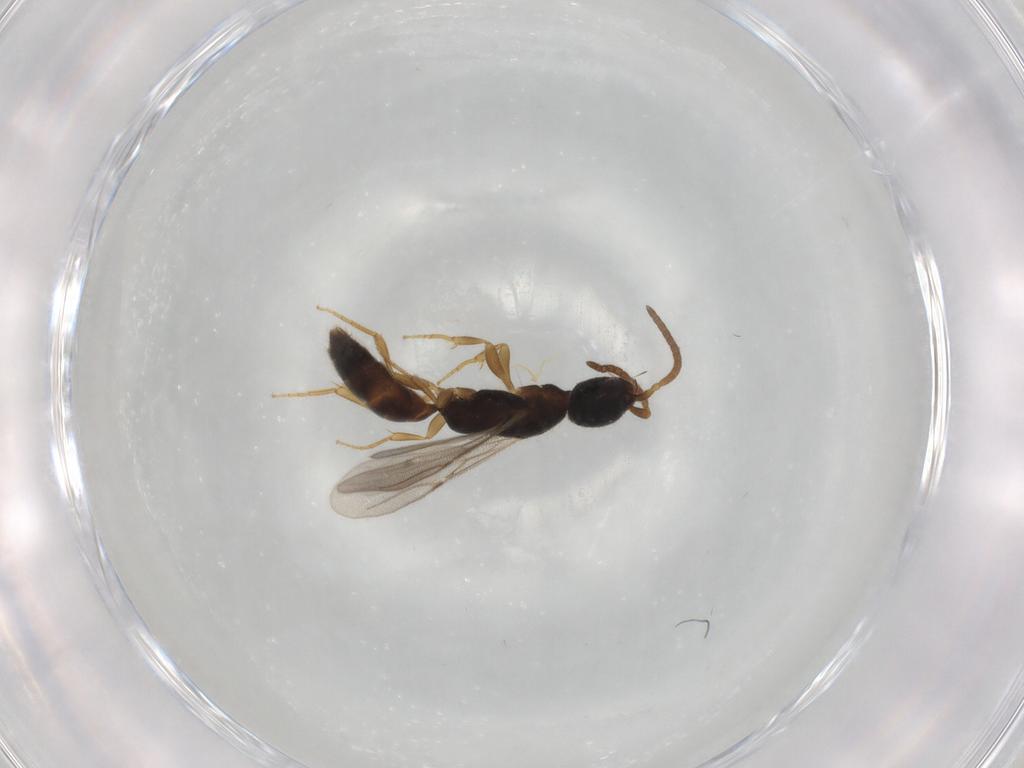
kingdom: Animalia
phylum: Arthropoda
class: Insecta
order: Hymenoptera
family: Bethylidae
